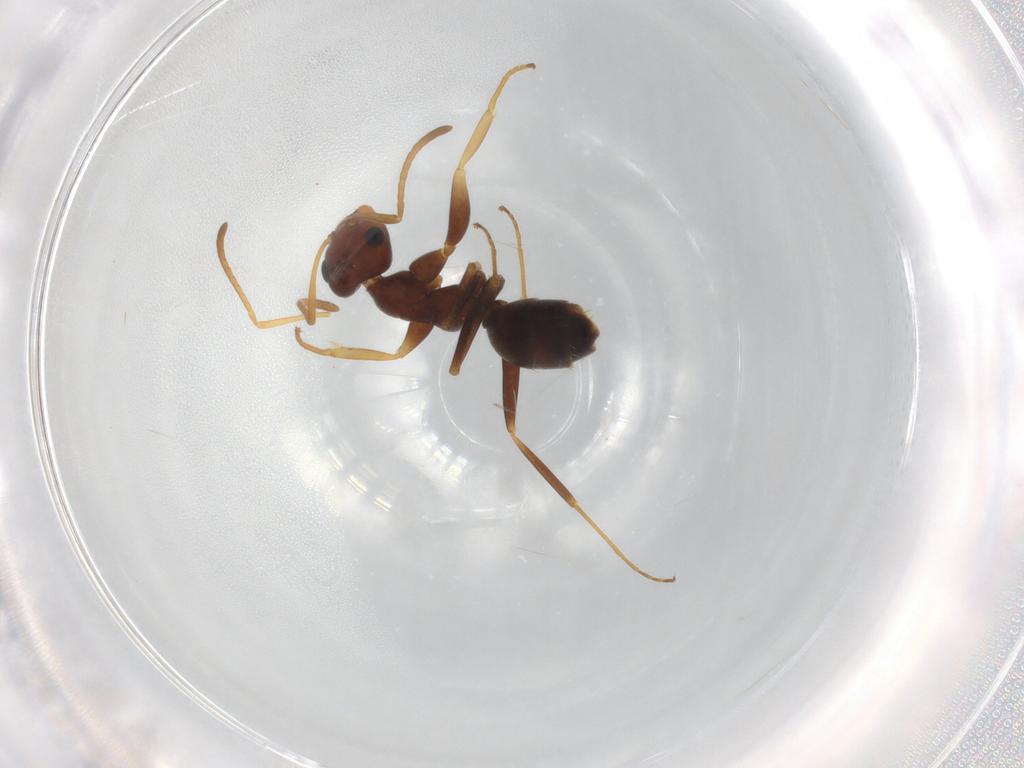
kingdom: Animalia
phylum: Arthropoda
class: Insecta
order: Hymenoptera
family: Formicidae
